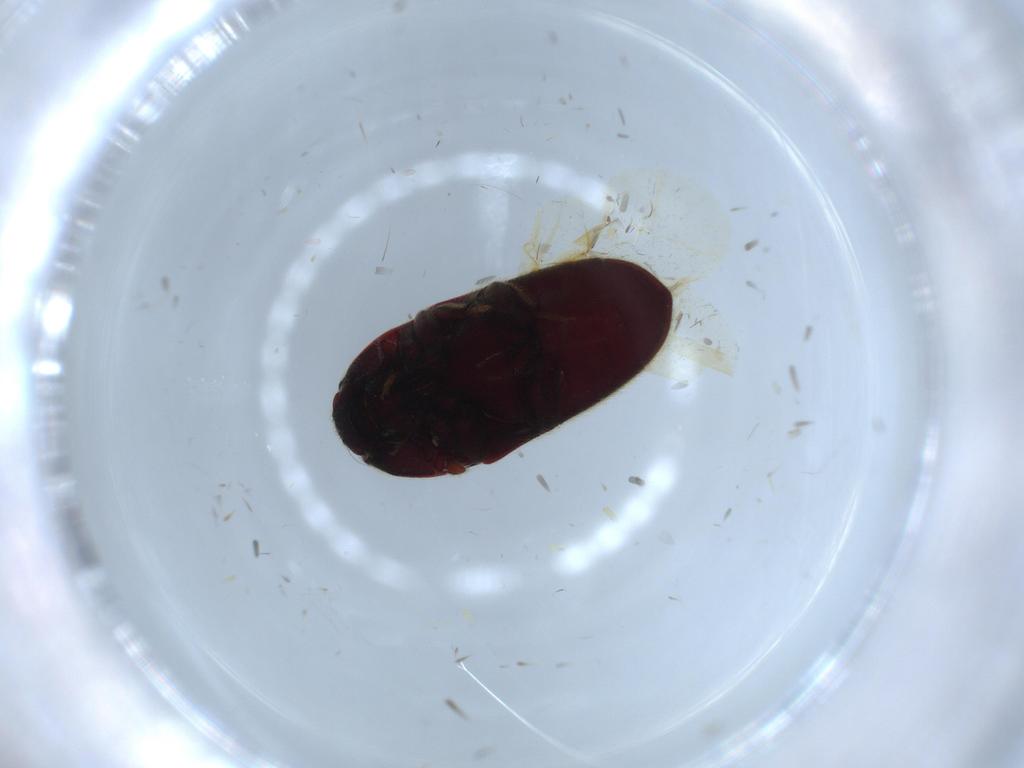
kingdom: Animalia
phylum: Arthropoda
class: Insecta
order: Coleoptera
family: Throscidae
